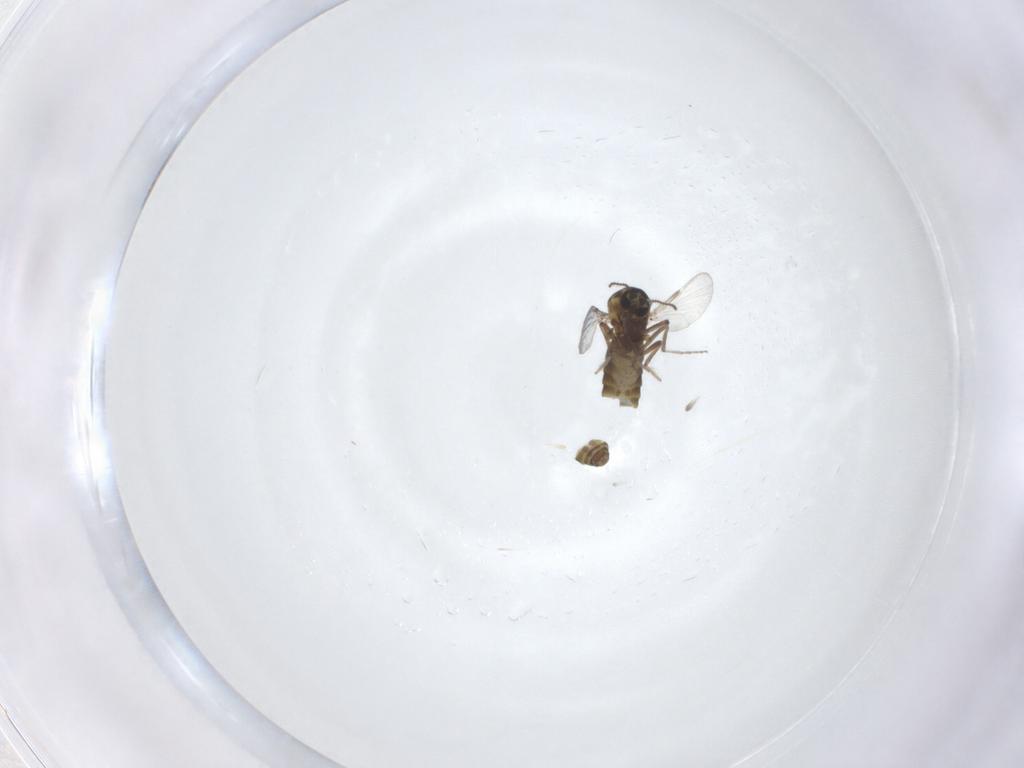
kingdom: Animalia
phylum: Arthropoda
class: Insecta
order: Diptera
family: Ceratopogonidae
